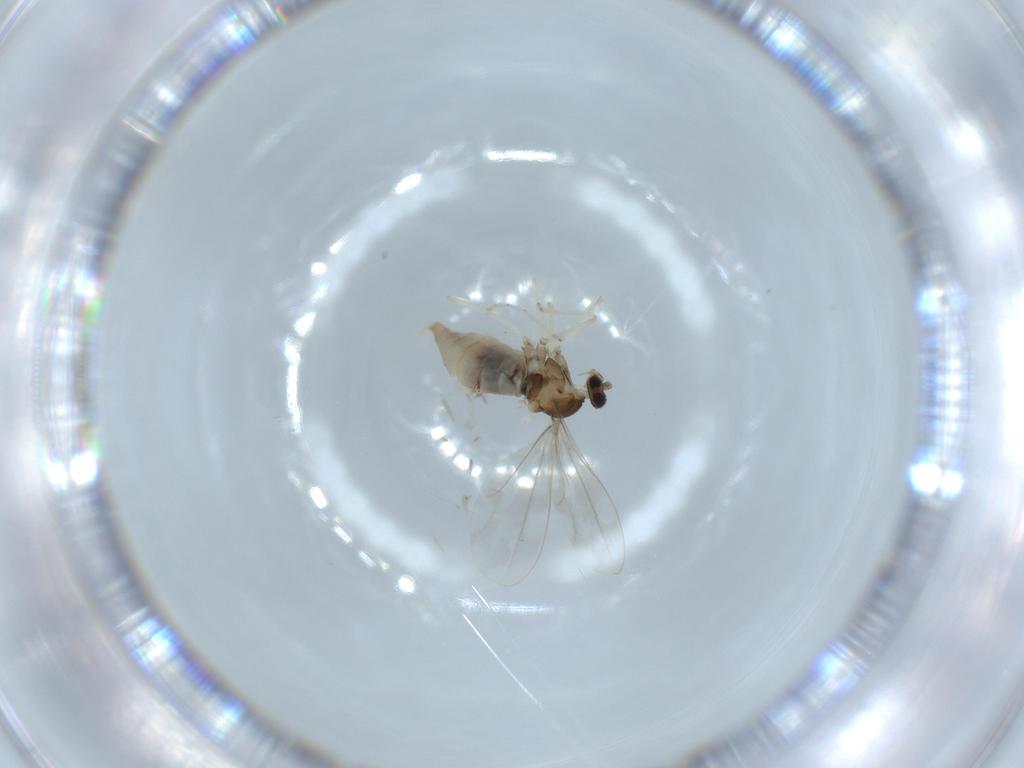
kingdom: Animalia
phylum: Arthropoda
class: Insecta
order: Diptera
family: Cecidomyiidae
